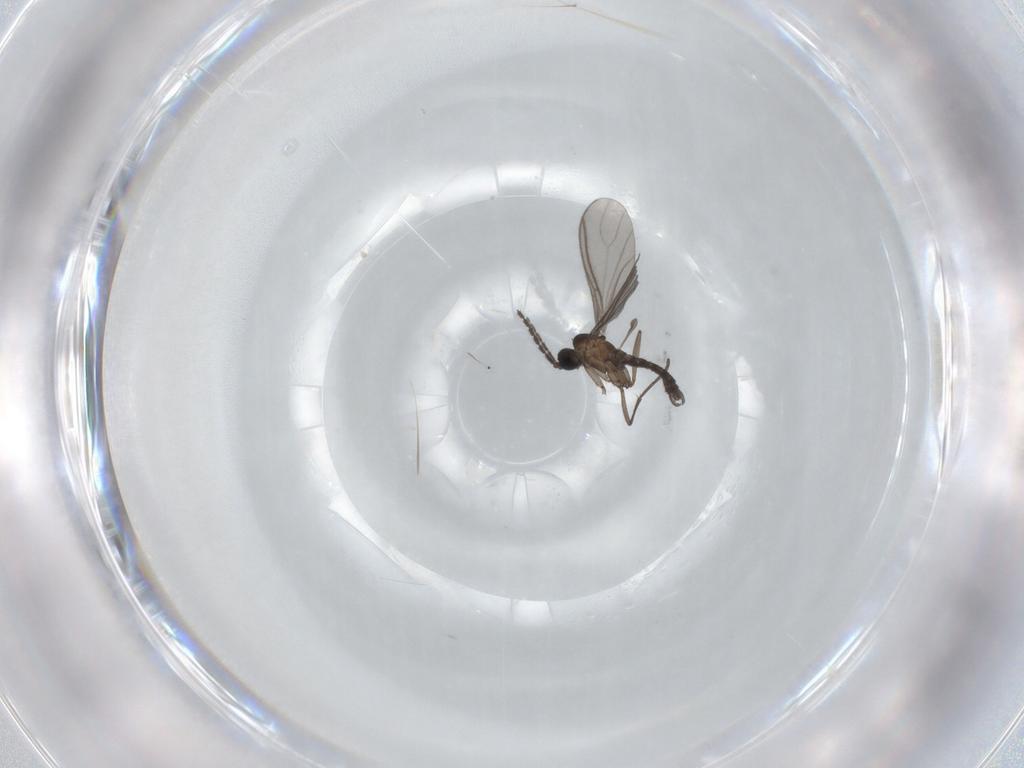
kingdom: Animalia
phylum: Arthropoda
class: Insecta
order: Diptera
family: Sciaridae
